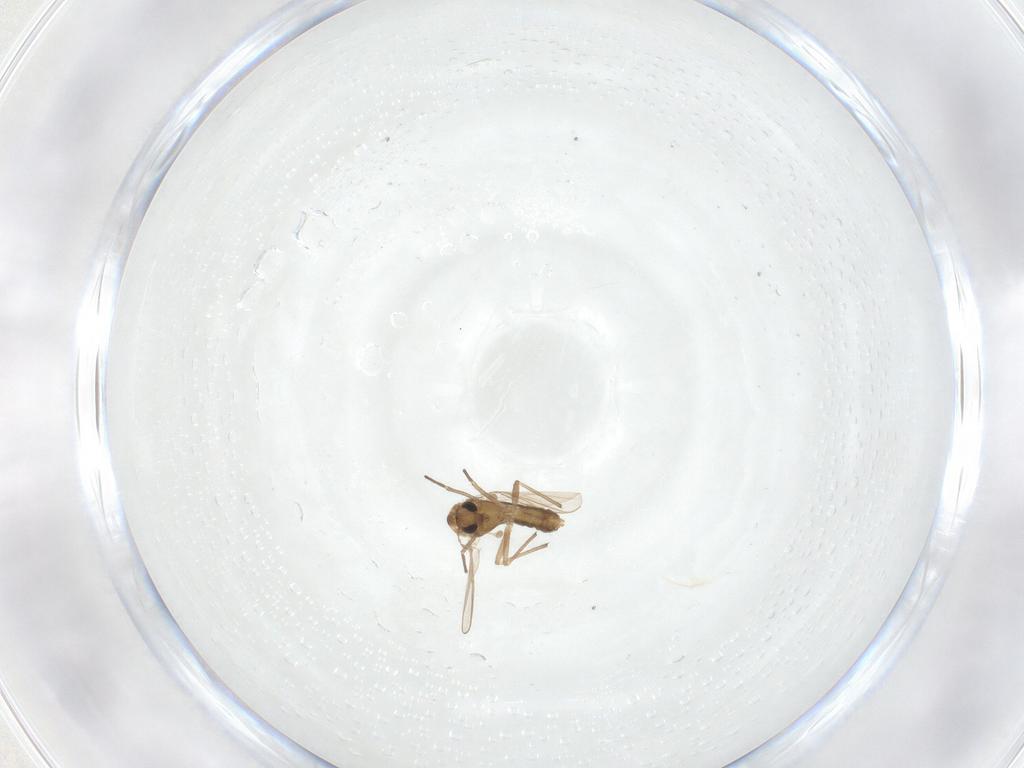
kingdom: Animalia
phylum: Arthropoda
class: Insecta
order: Diptera
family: Chironomidae
